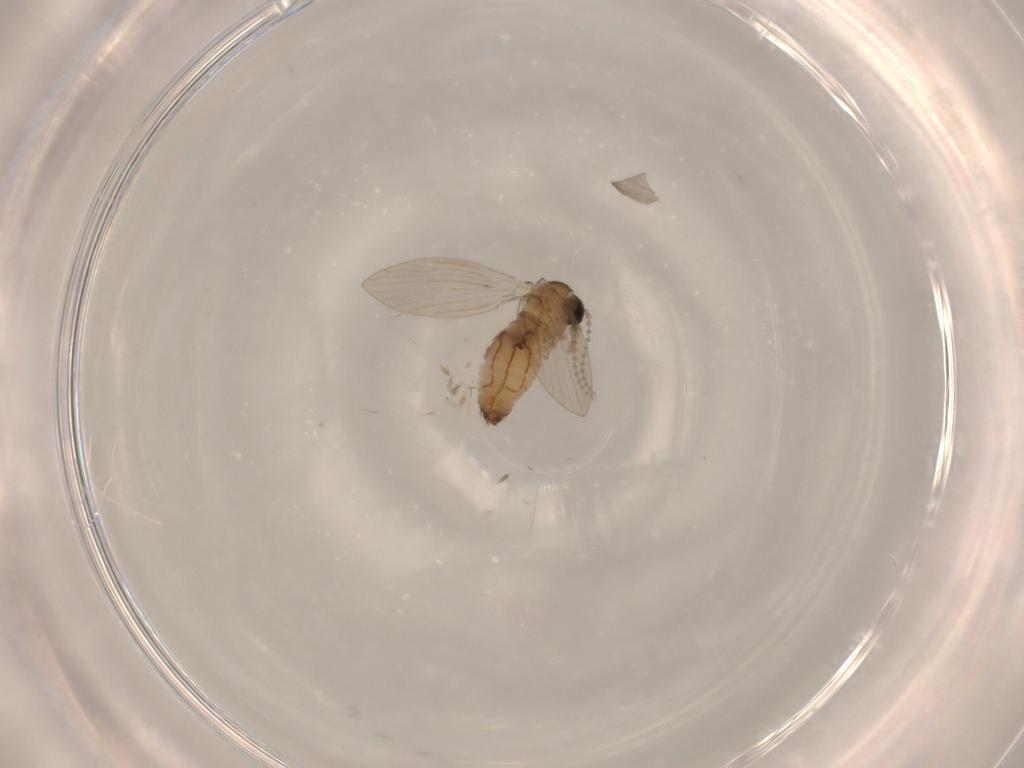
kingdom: Animalia
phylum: Arthropoda
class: Insecta
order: Diptera
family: Psychodidae
